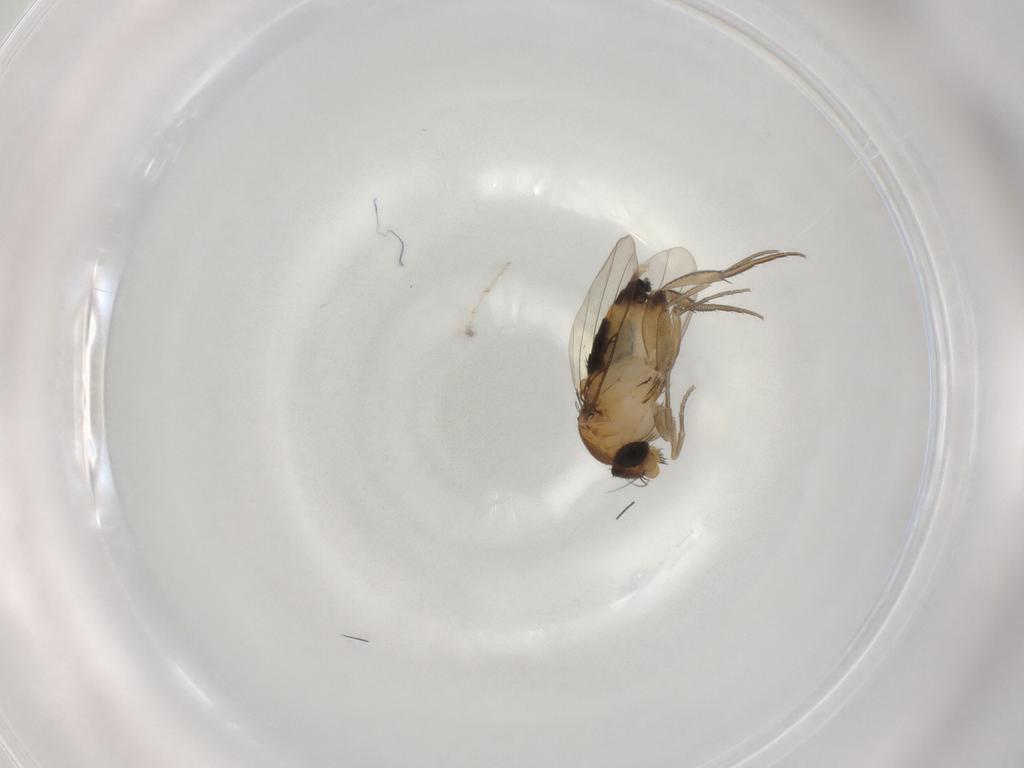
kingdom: Animalia
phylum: Arthropoda
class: Insecta
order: Diptera
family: Phoridae
